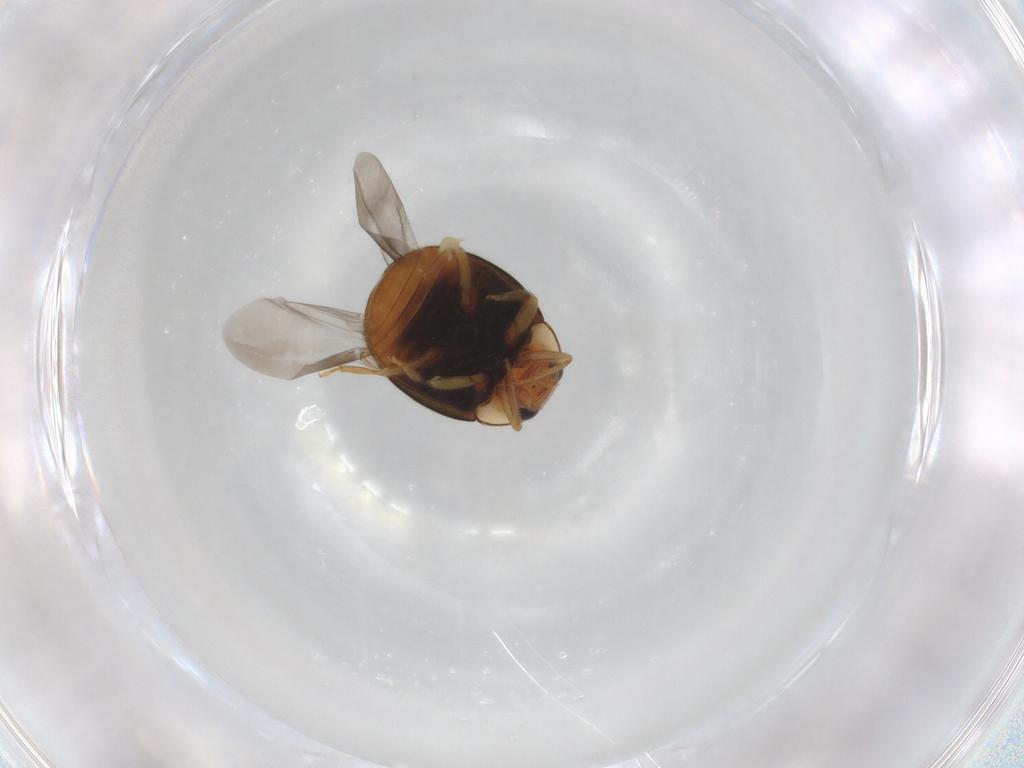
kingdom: Animalia
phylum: Arthropoda
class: Insecta
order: Coleoptera
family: Coccinellidae
